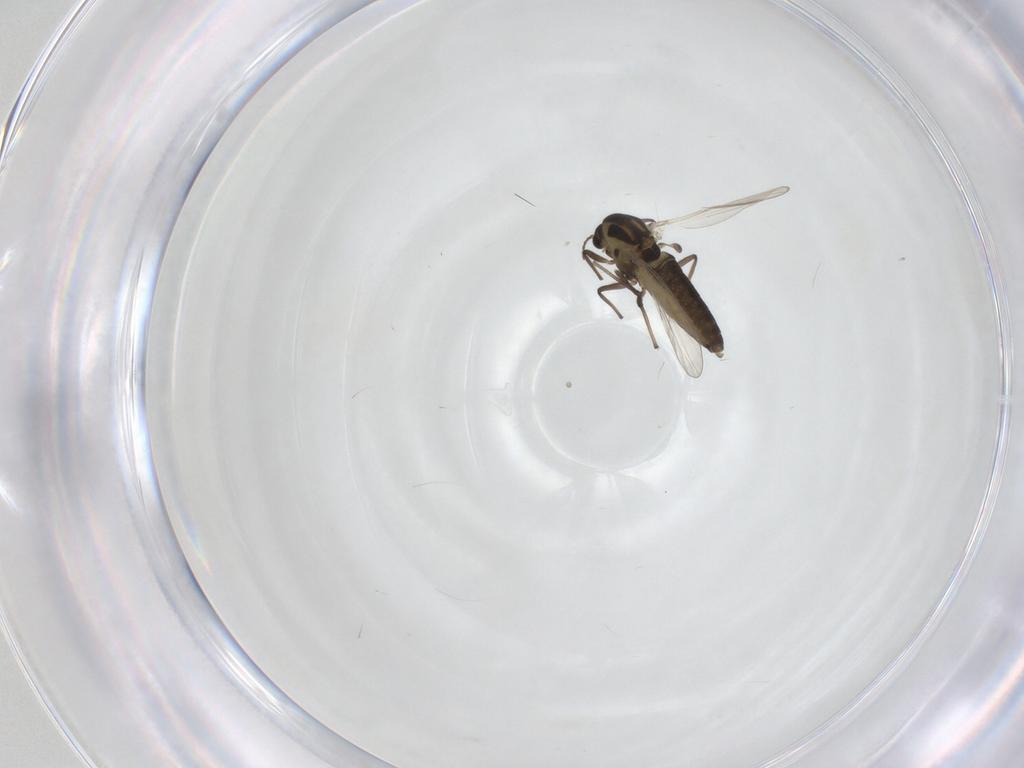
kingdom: Animalia
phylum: Arthropoda
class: Insecta
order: Diptera
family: Chironomidae
